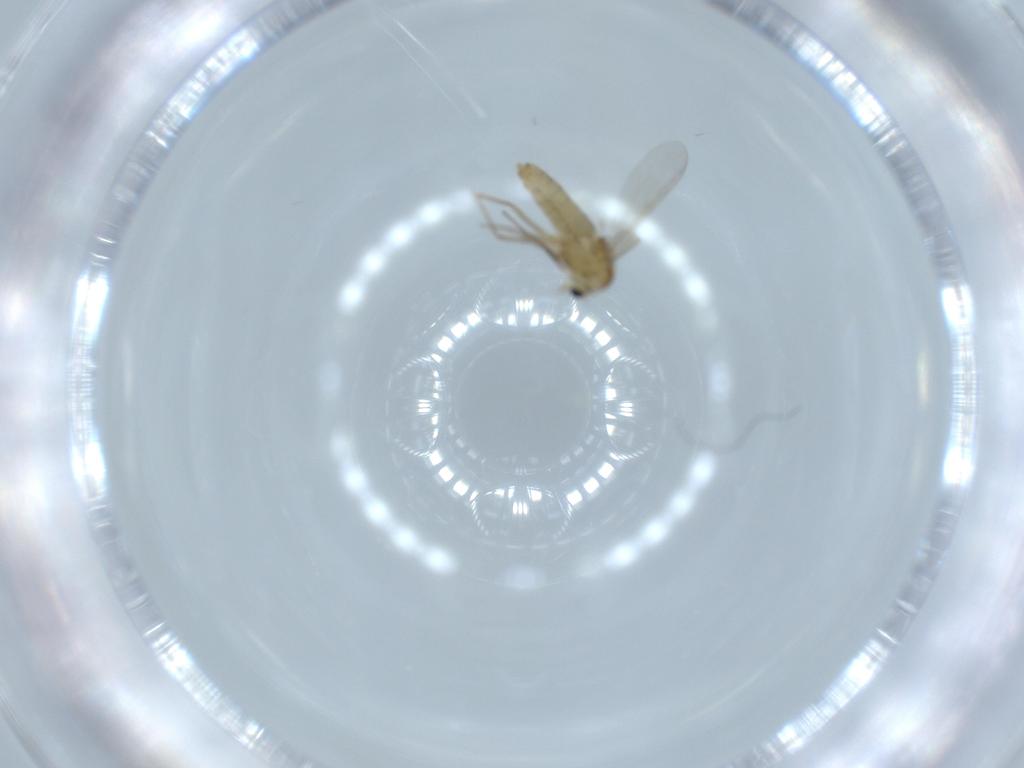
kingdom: Animalia
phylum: Arthropoda
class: Insecta
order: Diptera
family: Chironomidae
